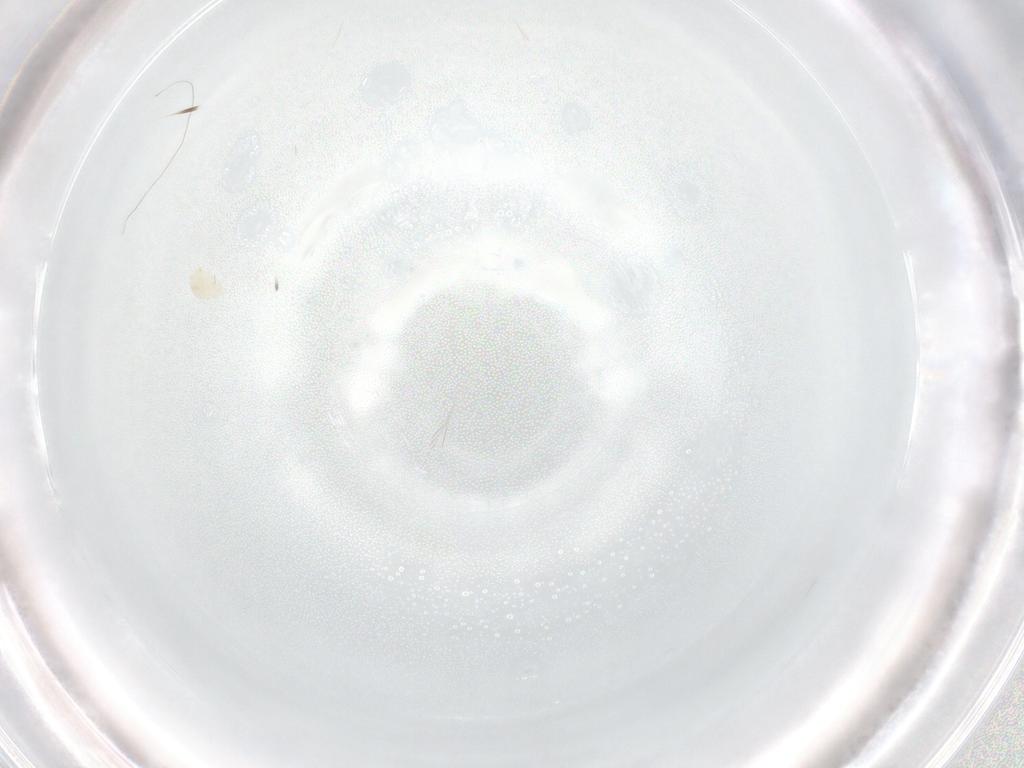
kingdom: Animalia
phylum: Arthropoda
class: Arachnida
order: Trombidiformes
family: Microtrombidiidae
